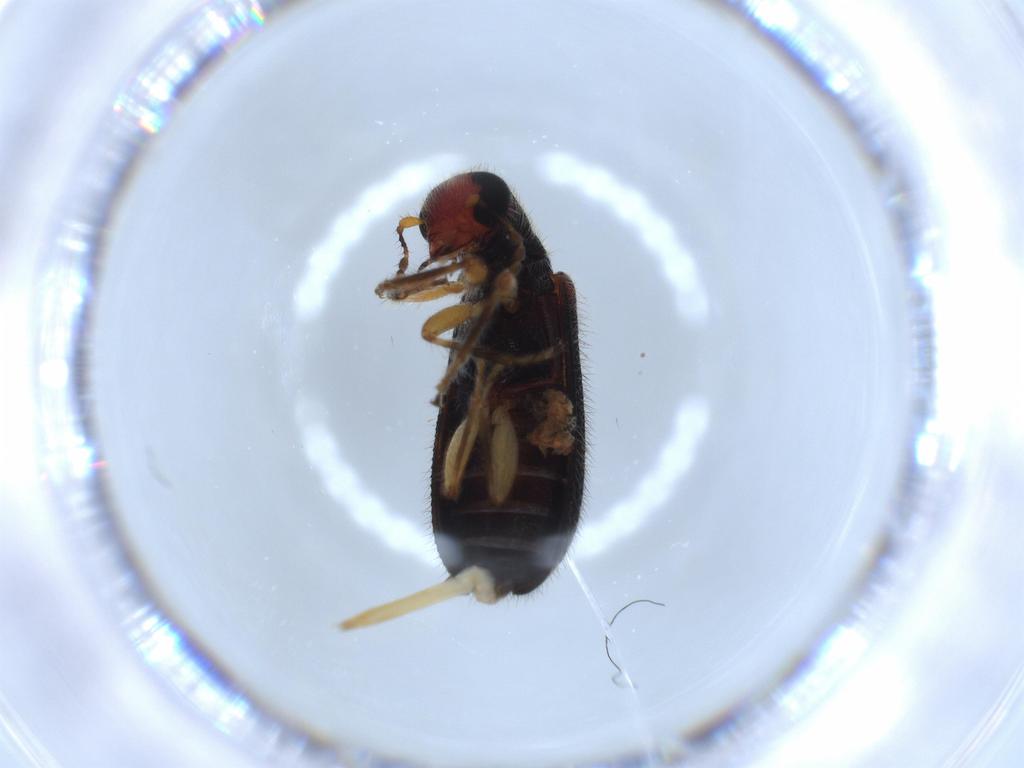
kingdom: Animalia
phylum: Arthropoda
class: Insecta
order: Coleoptera
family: Cleridae
